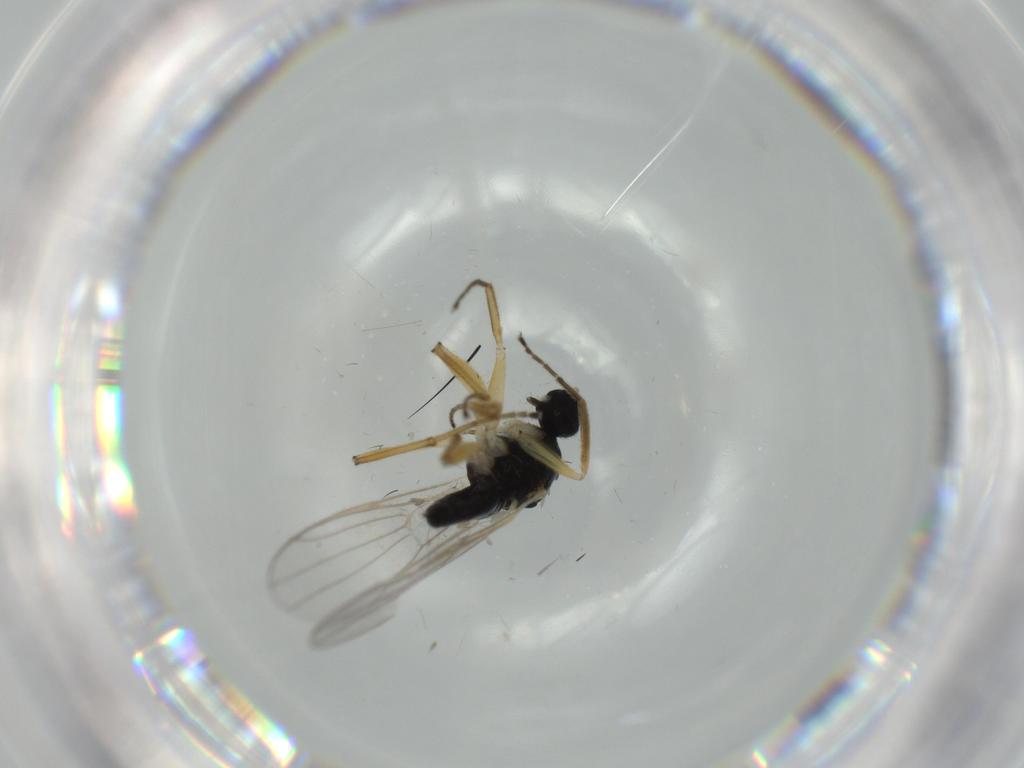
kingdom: Animalia
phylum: Arthropoda
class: Insecta
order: Diptera
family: Hybotidae
